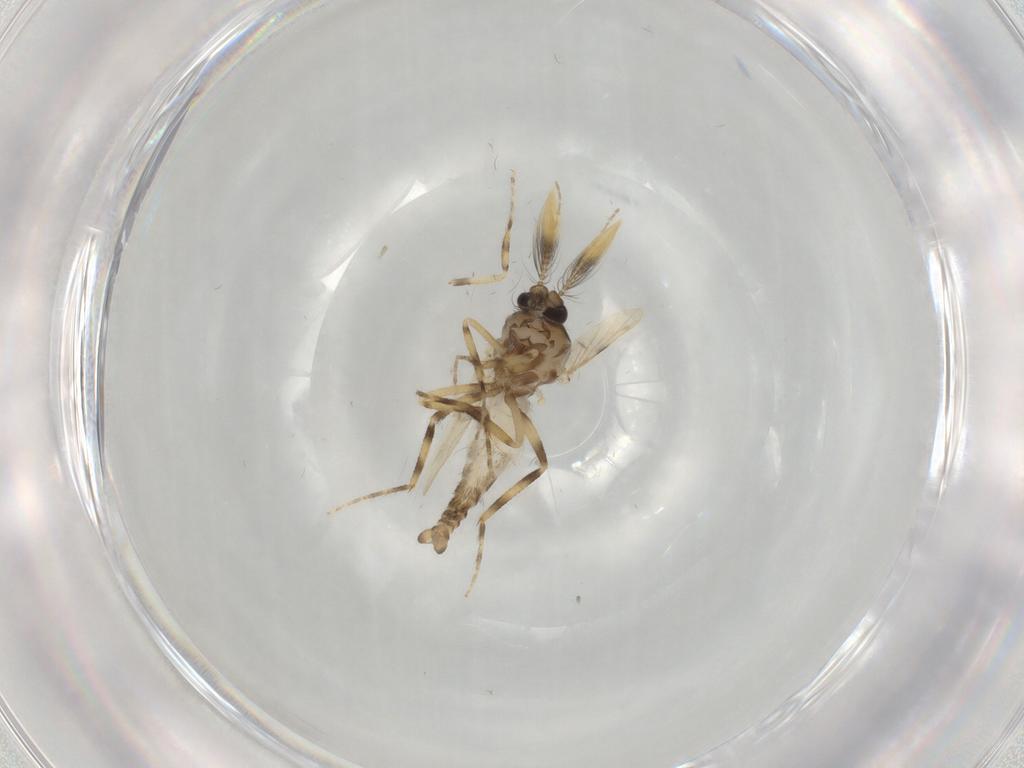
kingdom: Animalia
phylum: Arthropoda
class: Insecta
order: Diptera
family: Ceratopogonidae
